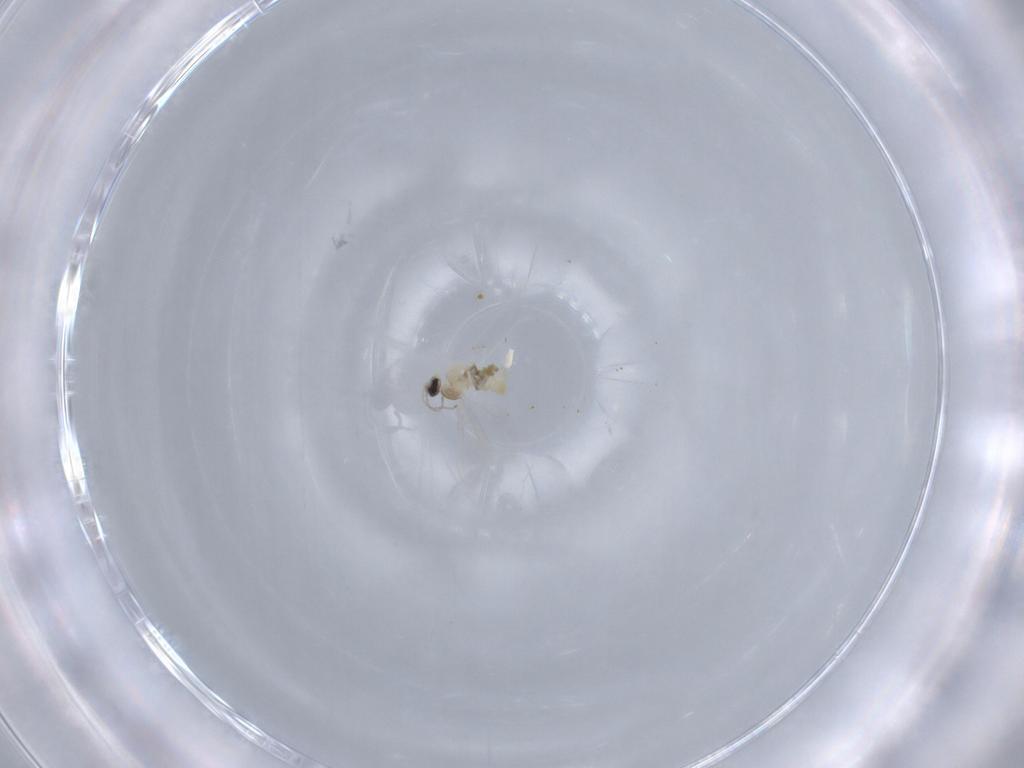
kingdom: Animalia
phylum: Arthropoda
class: Insecta
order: Diptera
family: Cecidomyiidae
